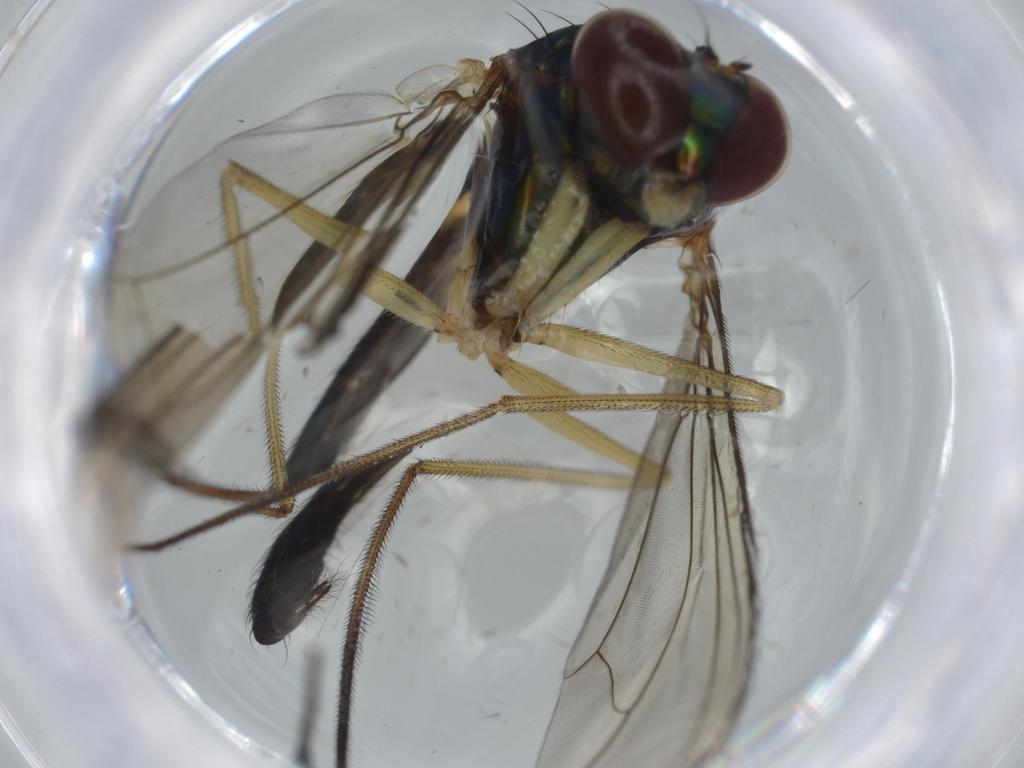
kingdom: Animalia
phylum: Arthropoda
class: Insecta
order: Diptera
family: Dolichopodidae
